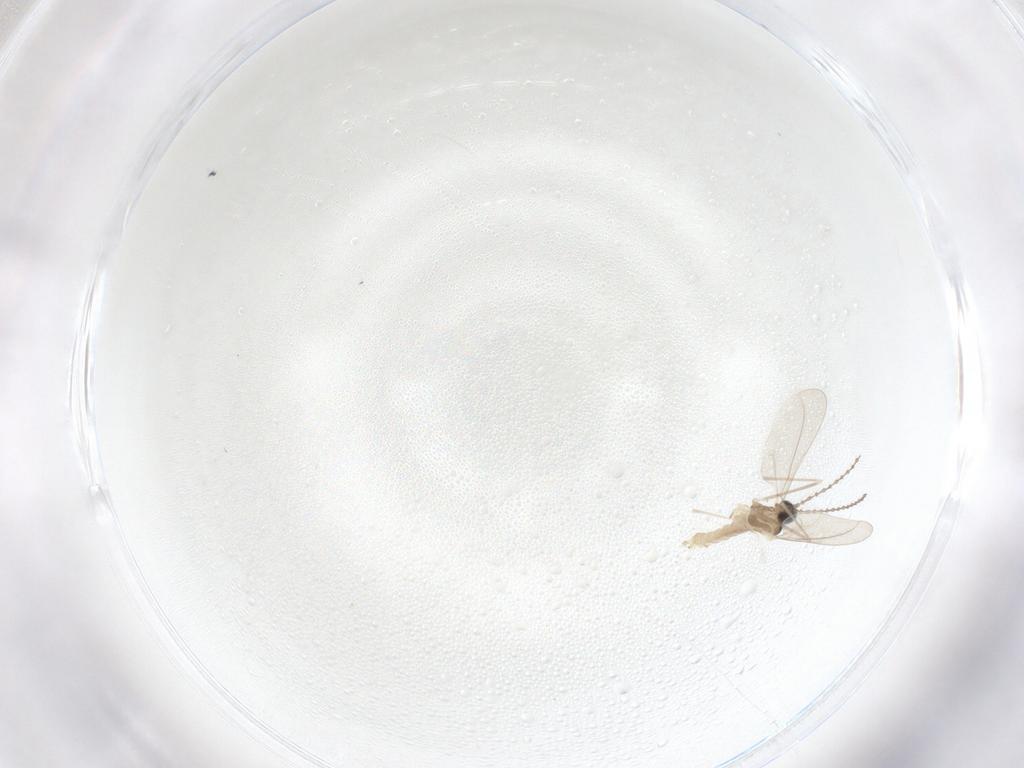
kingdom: Animalia
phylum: Arthropoda
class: Insecta
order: Diptera
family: Cecidomyiidae
